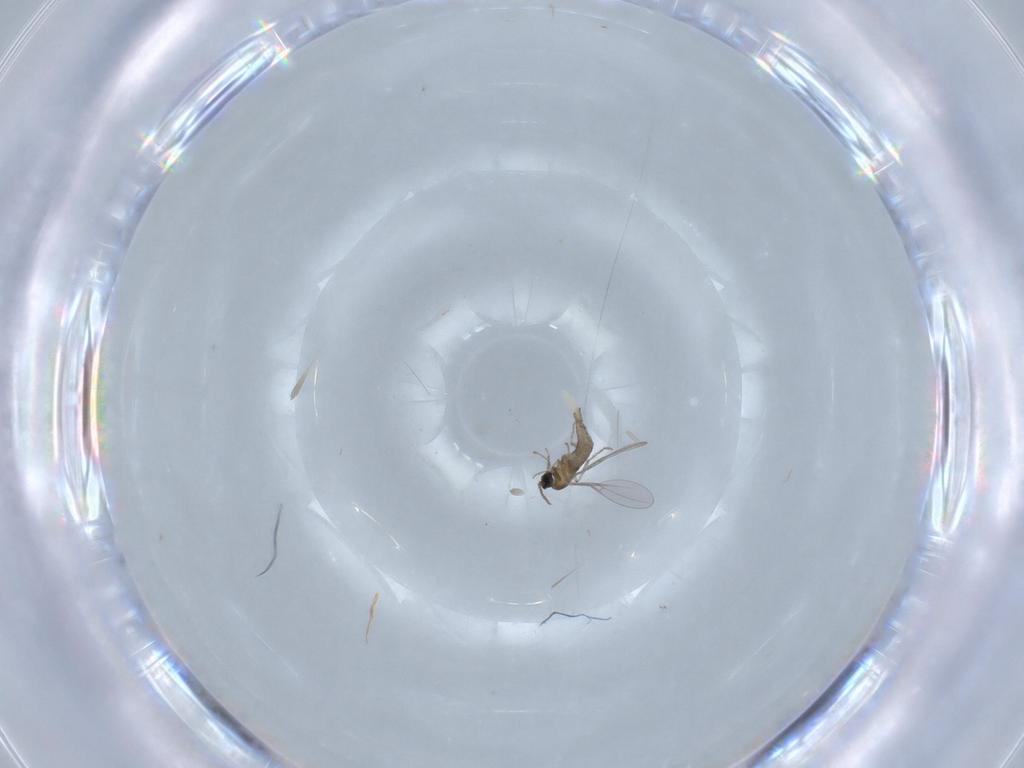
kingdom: Animalia
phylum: Arthropoda
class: Insecta
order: Diptera
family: Cecidomyiidae
